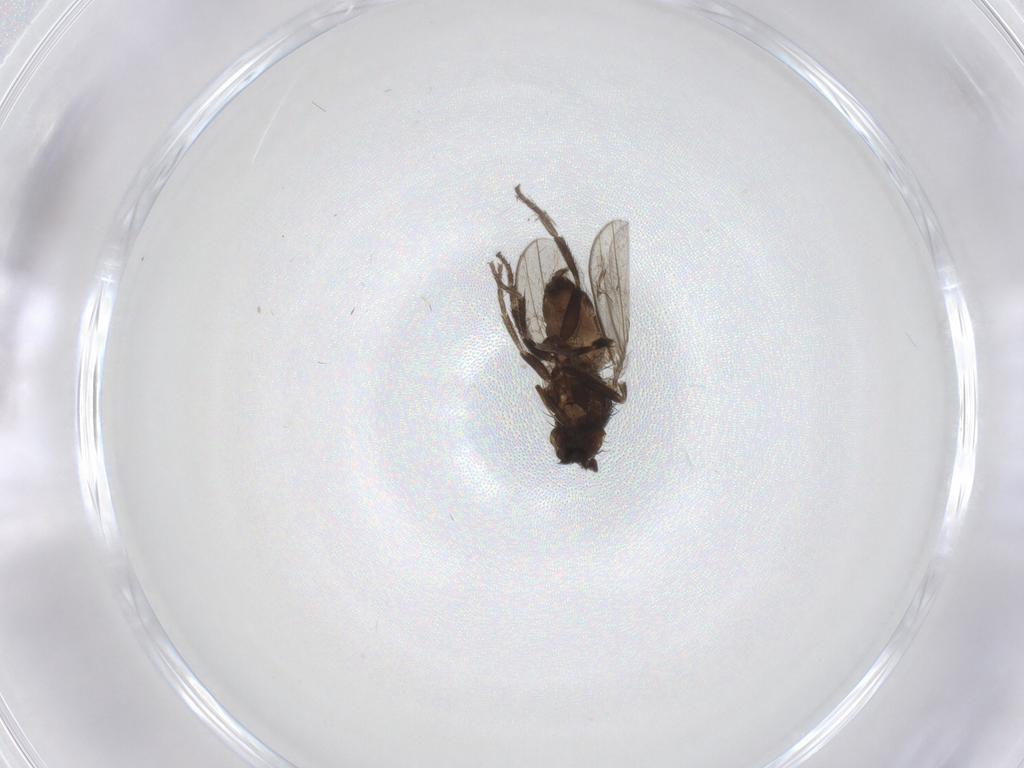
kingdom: Animalia
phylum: Arthropoda
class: Insecta
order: Diptera
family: Milichiidae
